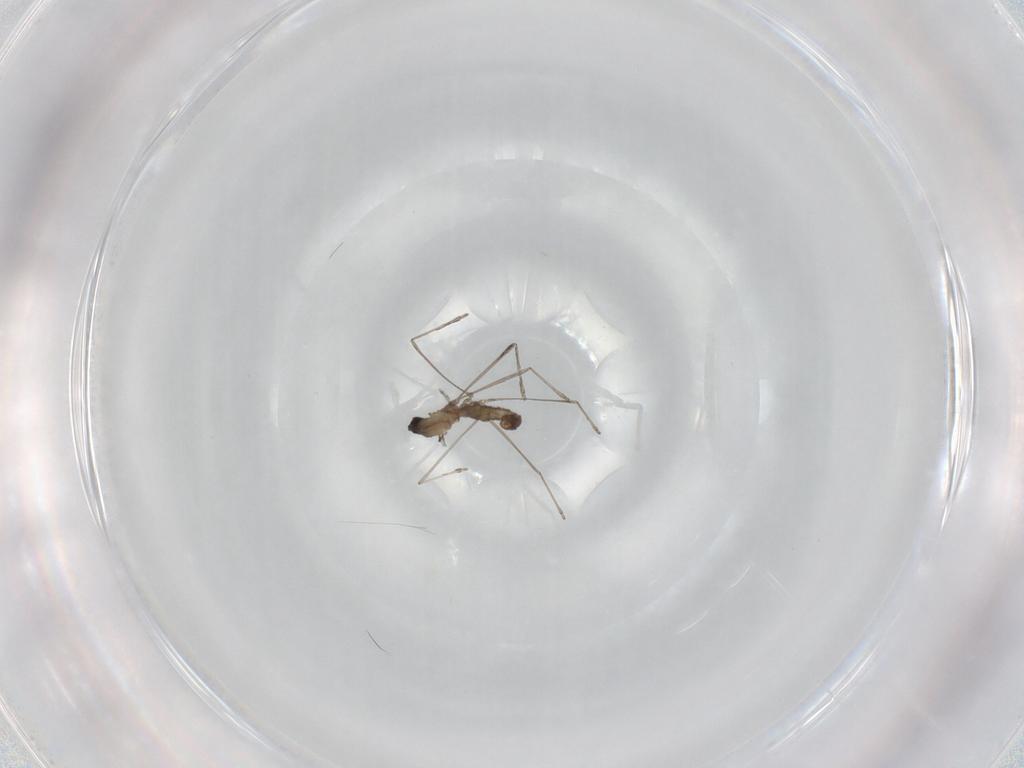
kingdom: Animalia
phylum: Arthropoda
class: Insecta
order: Diptera
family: Cecidomyiidae
